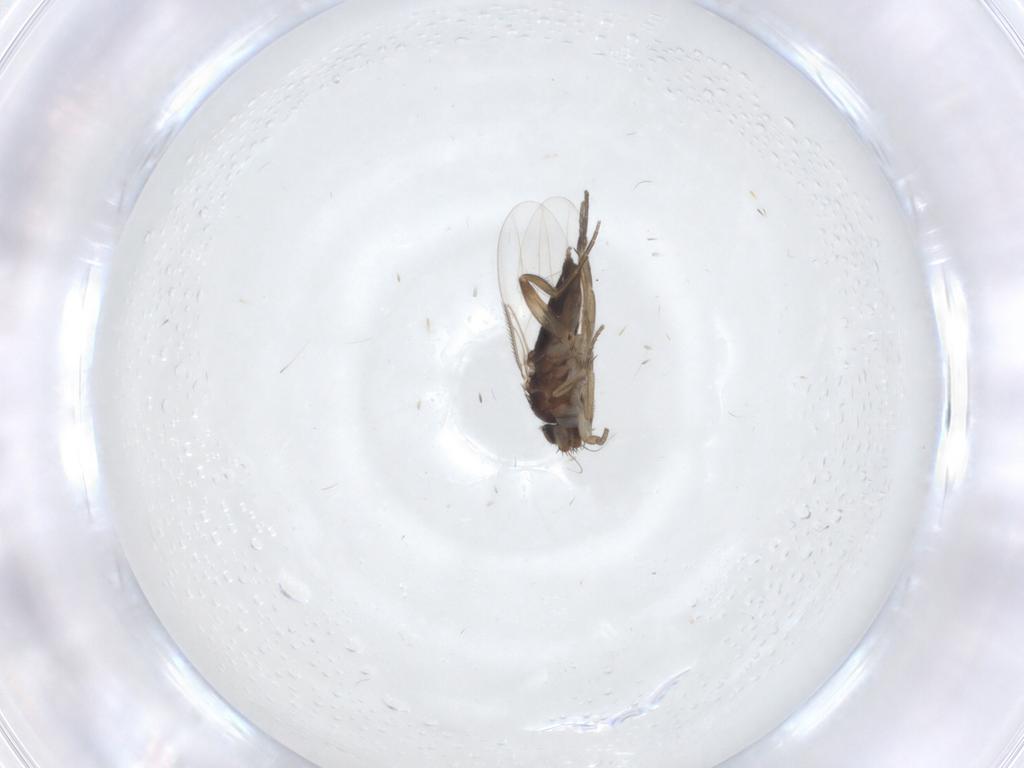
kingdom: Animalia
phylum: Arthropoda
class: Insecta
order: Diptera
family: Phoridae
